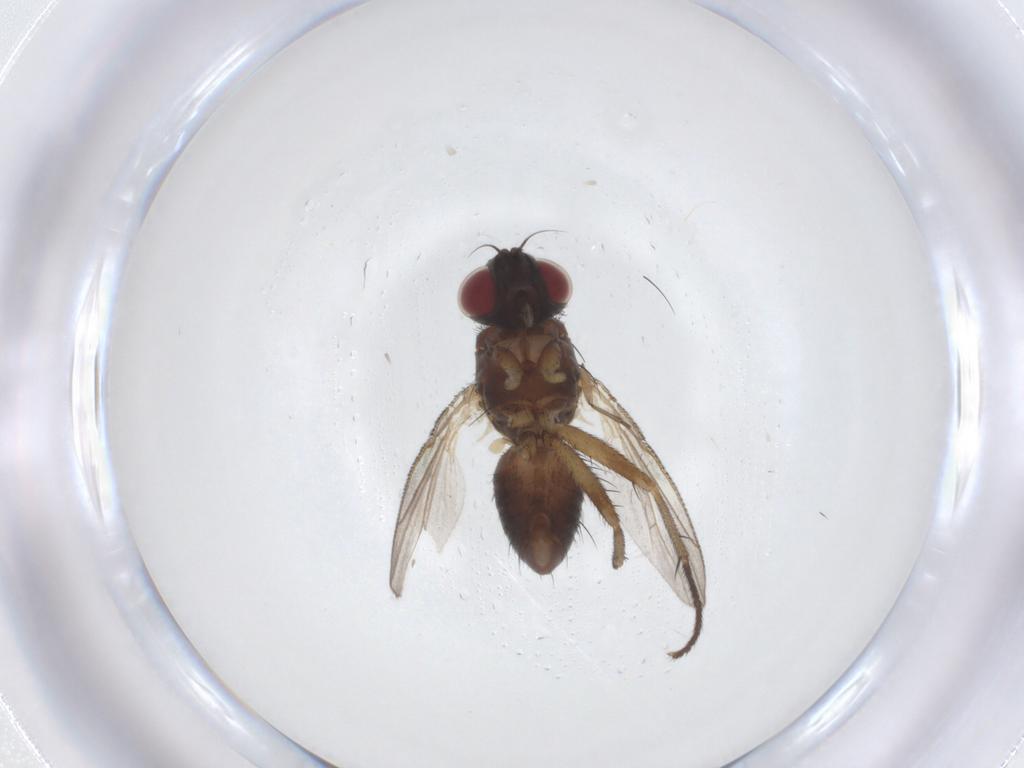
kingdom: Animalia
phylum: Arthropoda
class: Insecta
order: Diptera
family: Muscidae
